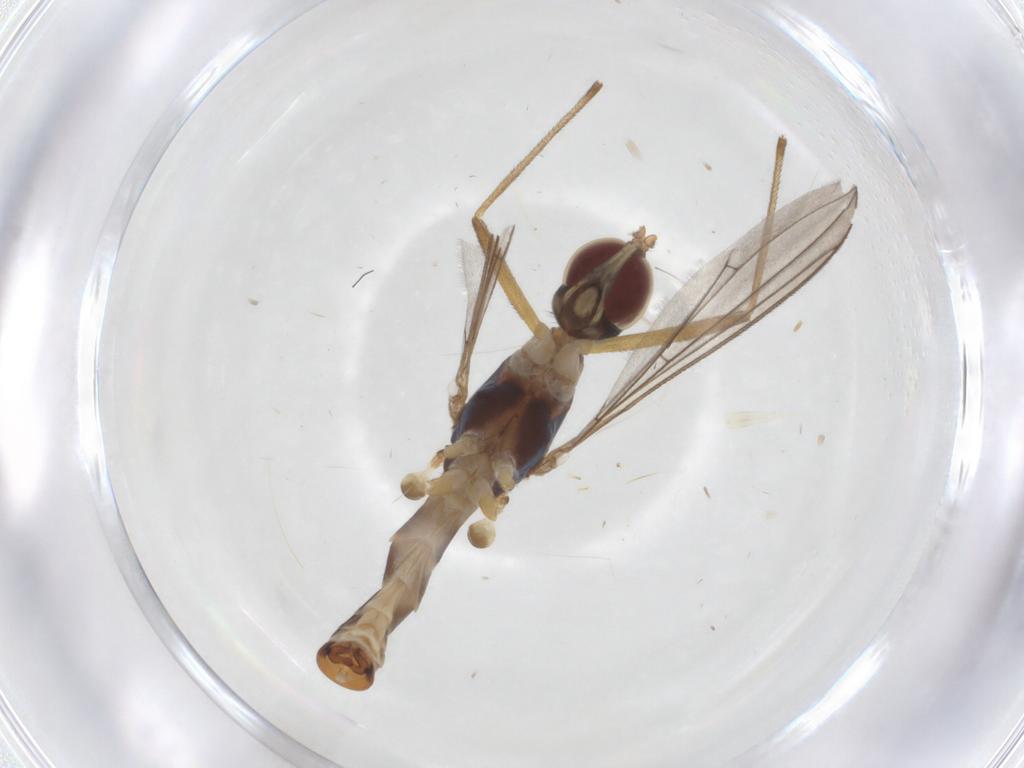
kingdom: Animalia
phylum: Arthropoda
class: Insecta
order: Diptera
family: Micropezidae
